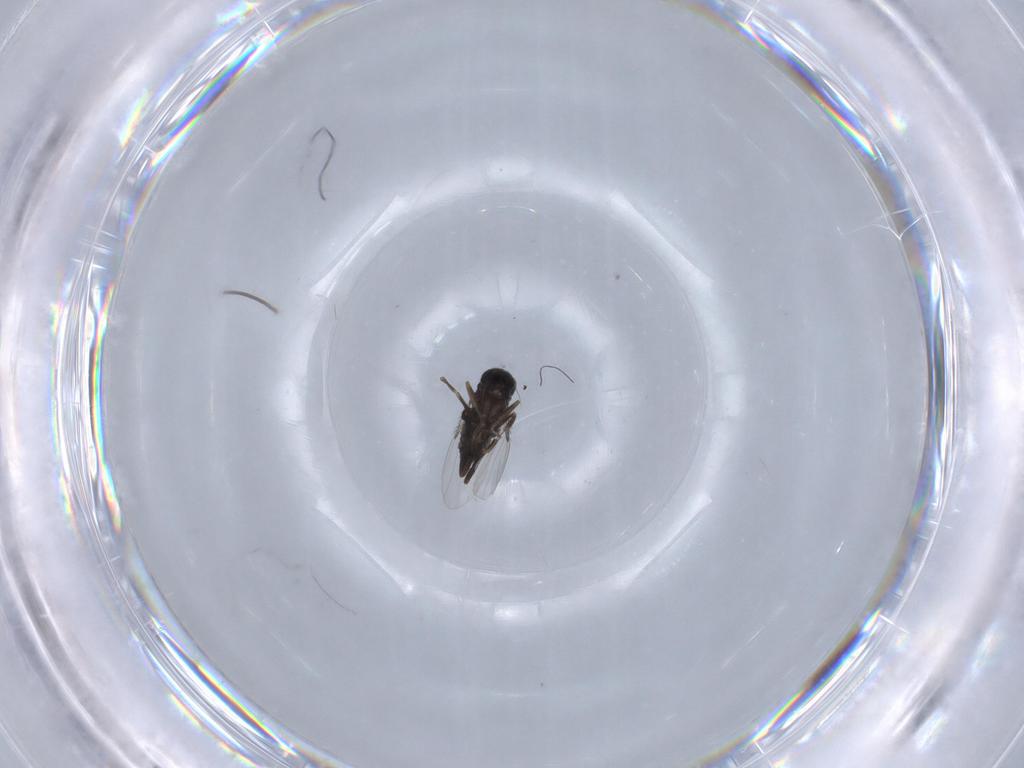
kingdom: Animalia
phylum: Arthropoda
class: Insecta
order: Diptera
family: Phoridae
